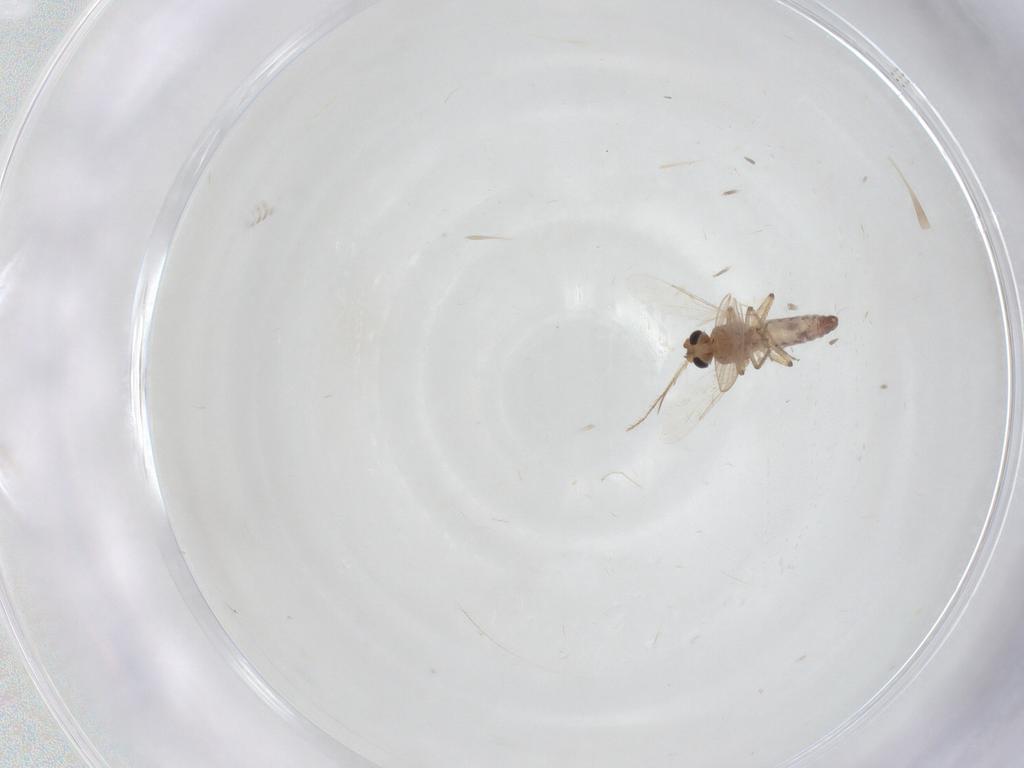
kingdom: Animalia
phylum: Arthropoda
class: Insecta
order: Diptera
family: Ceratopogonidae
